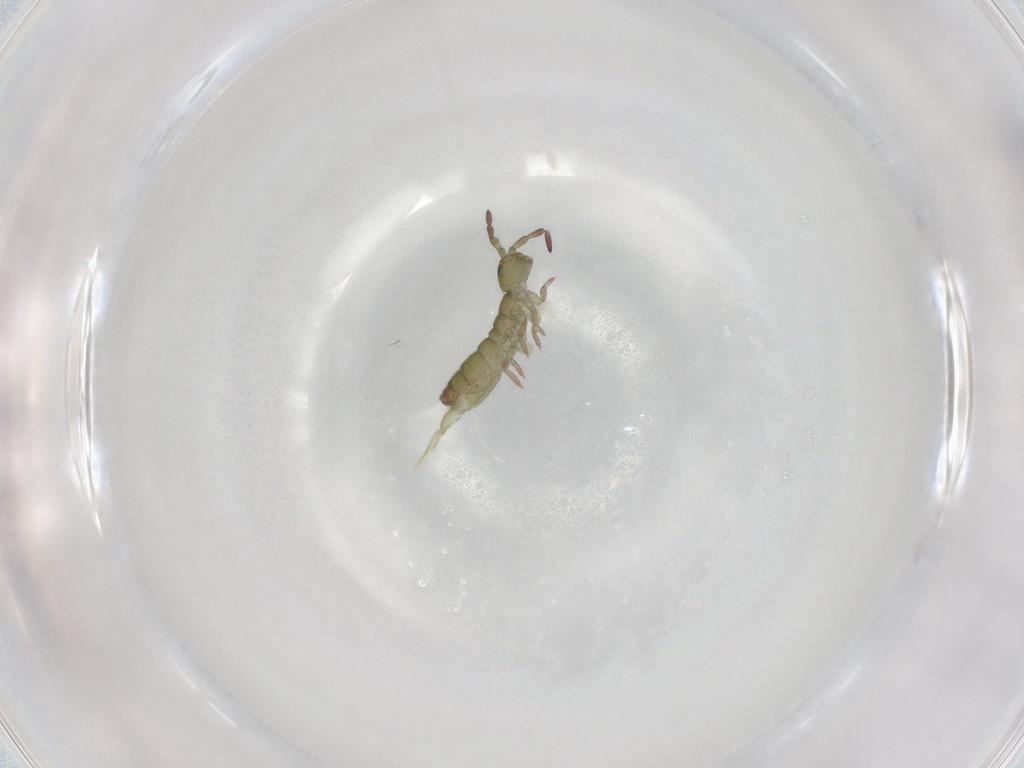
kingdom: Animalia
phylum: Arthropoda
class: Collembola
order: Entomobryomorpha
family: Isotomidae
